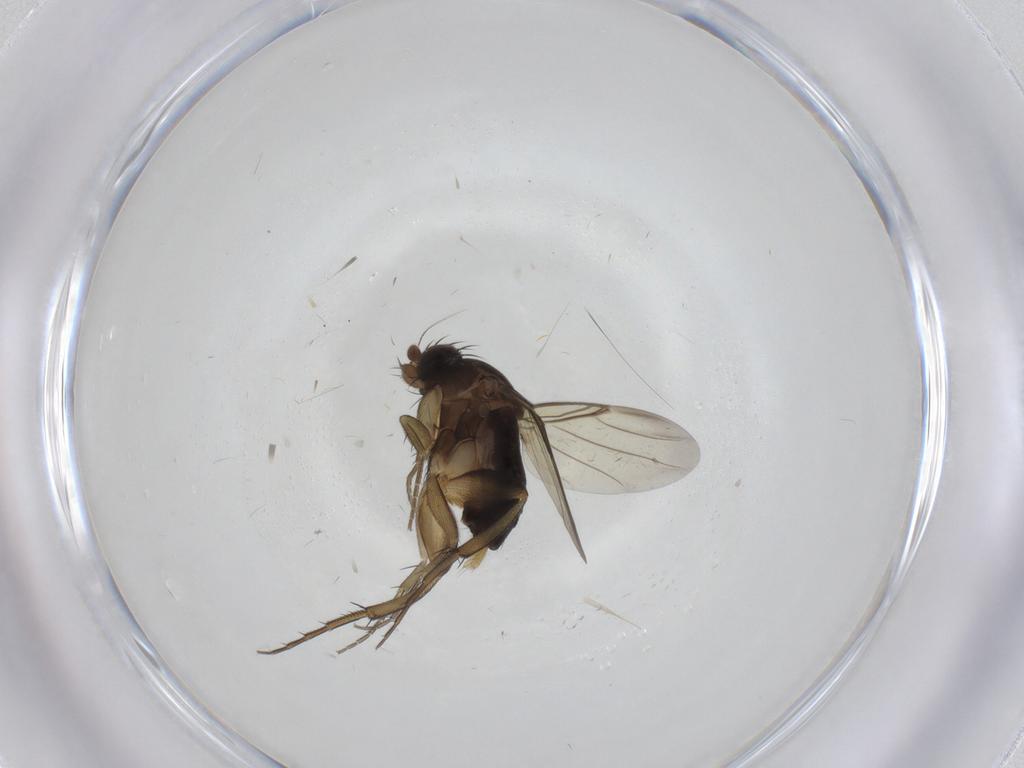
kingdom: Animalia
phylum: Arthropoda
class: Insecta
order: Diptera
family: Phoridae
